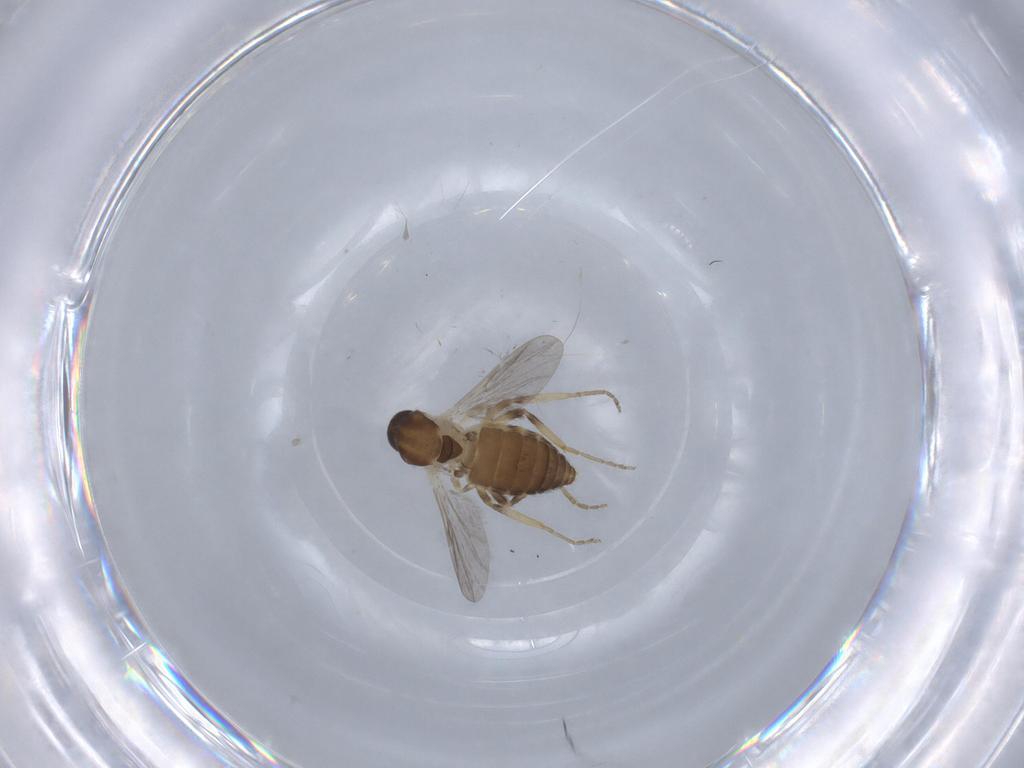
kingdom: Animalia
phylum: Arthropoda
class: Insecta
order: Diptera
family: Ceratopogonidae
